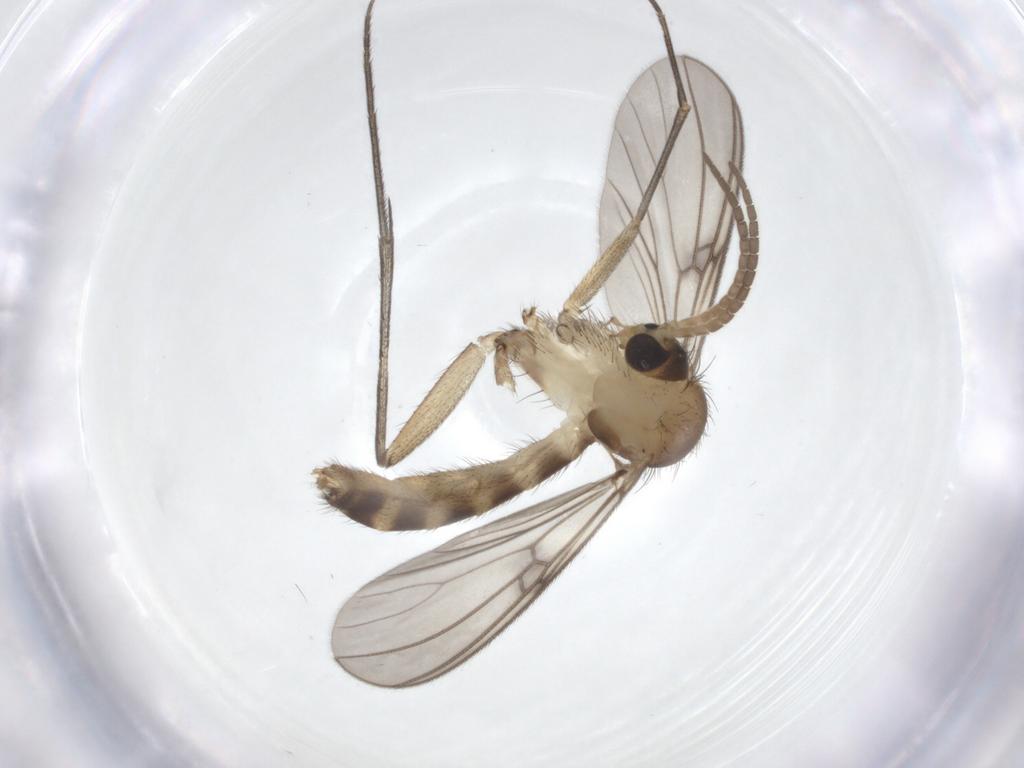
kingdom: Animalia
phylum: Arthropoda
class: Insecta
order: Diptera
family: Mycetophilidae
